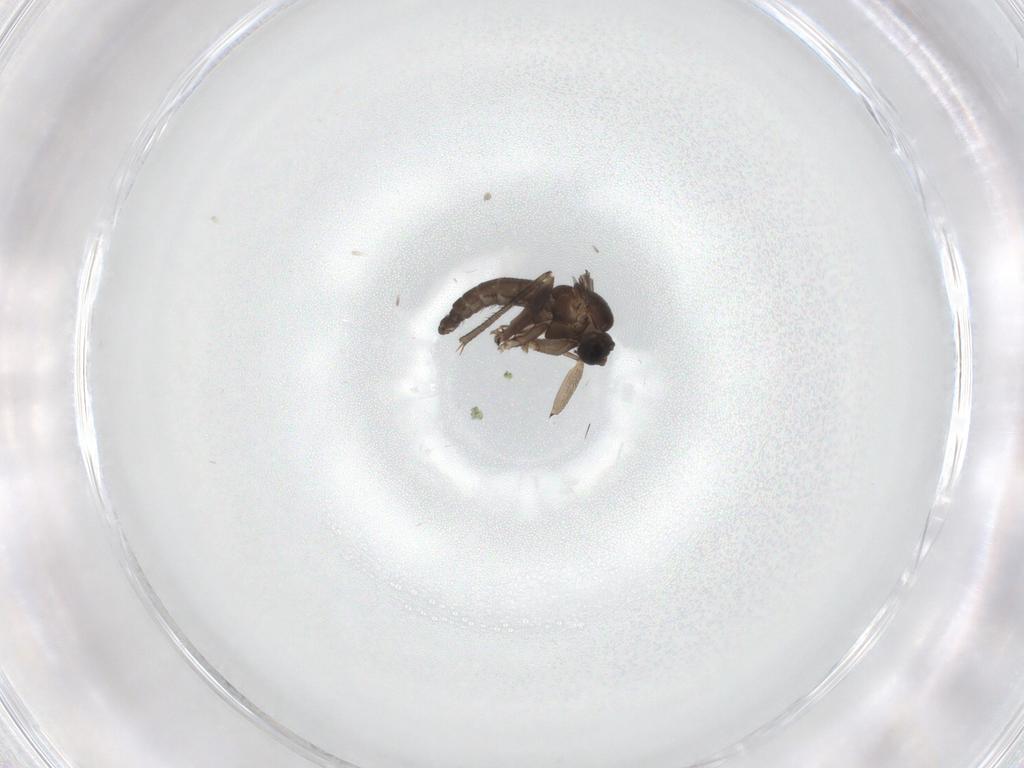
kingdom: Animalia
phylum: Arthropoda
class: Insecta
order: Diptera
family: Sciaridae
